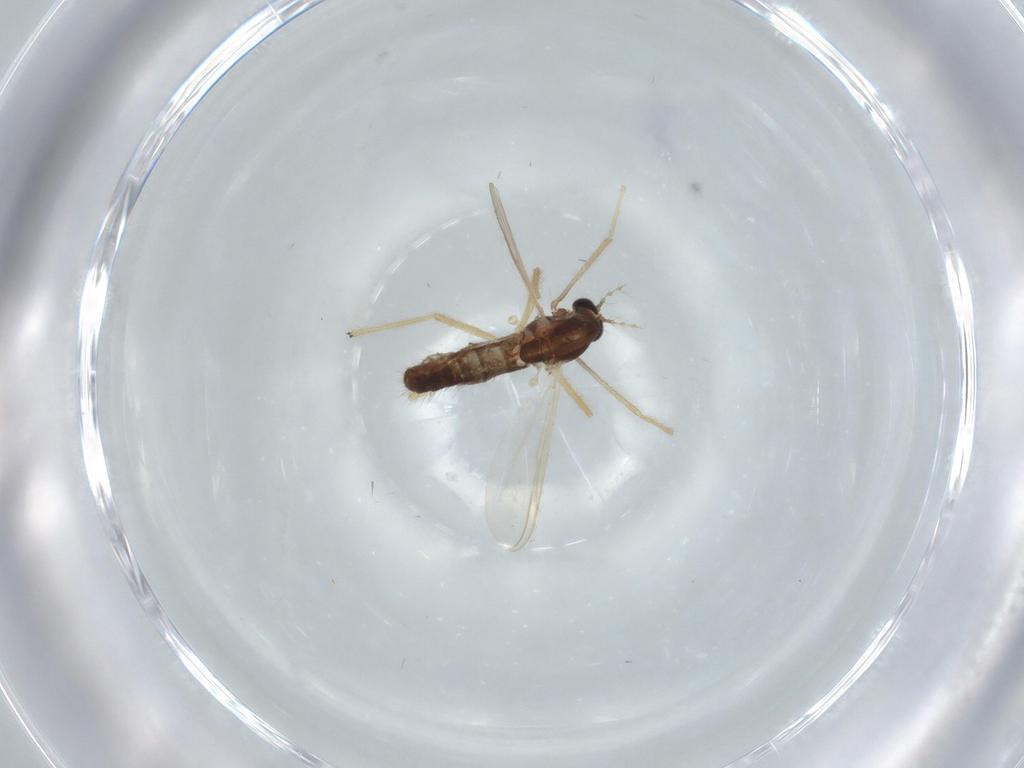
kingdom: Animalia
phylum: Arthropoda
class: Insecta
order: Diptera
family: Chironomidae
